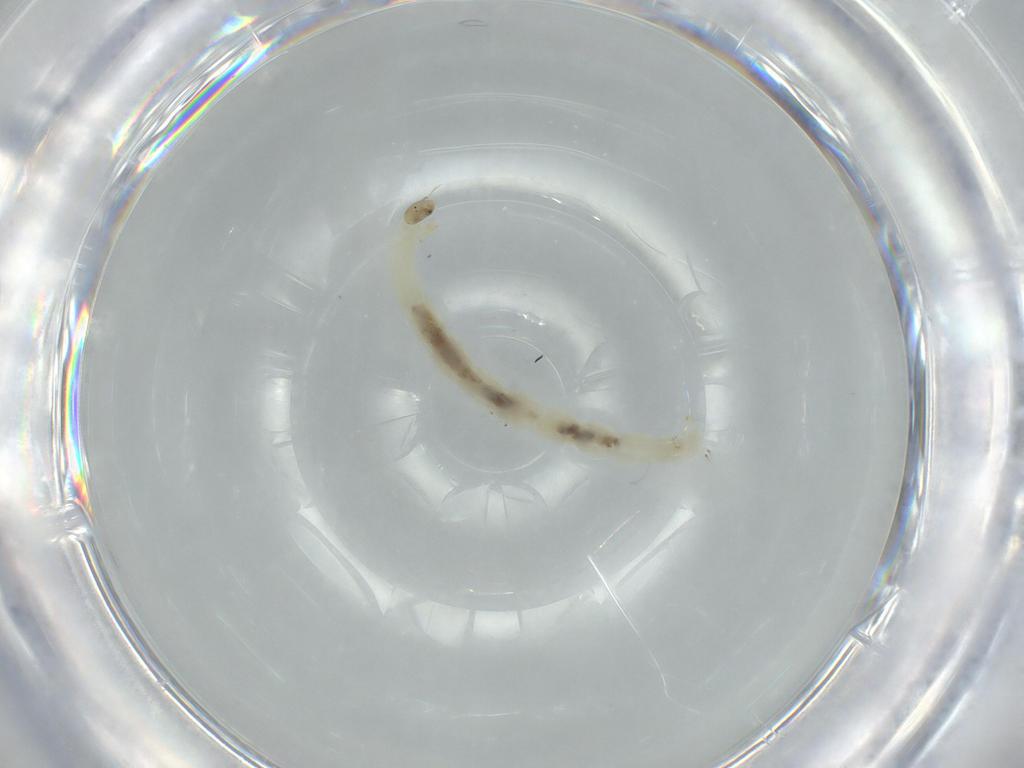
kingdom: Animalia
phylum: Arthropoda
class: Insecta
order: Diptera
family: Chironomidae
